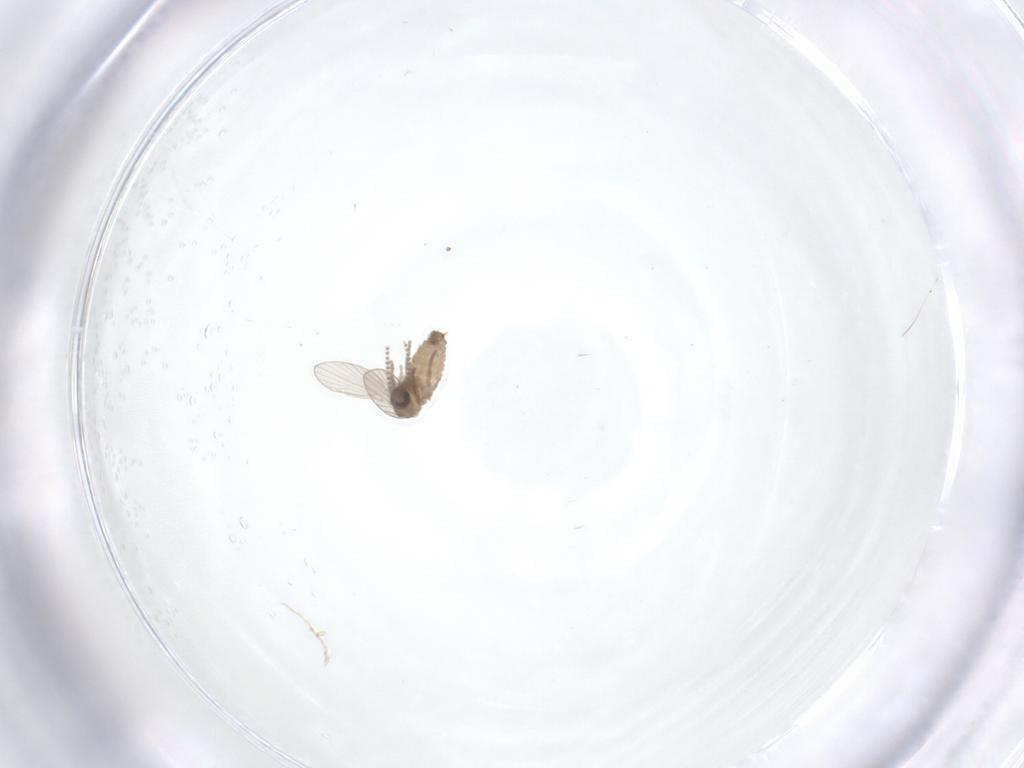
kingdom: Animalia
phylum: Arthropoda
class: Insecta
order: Diptera
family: Psychodidae
